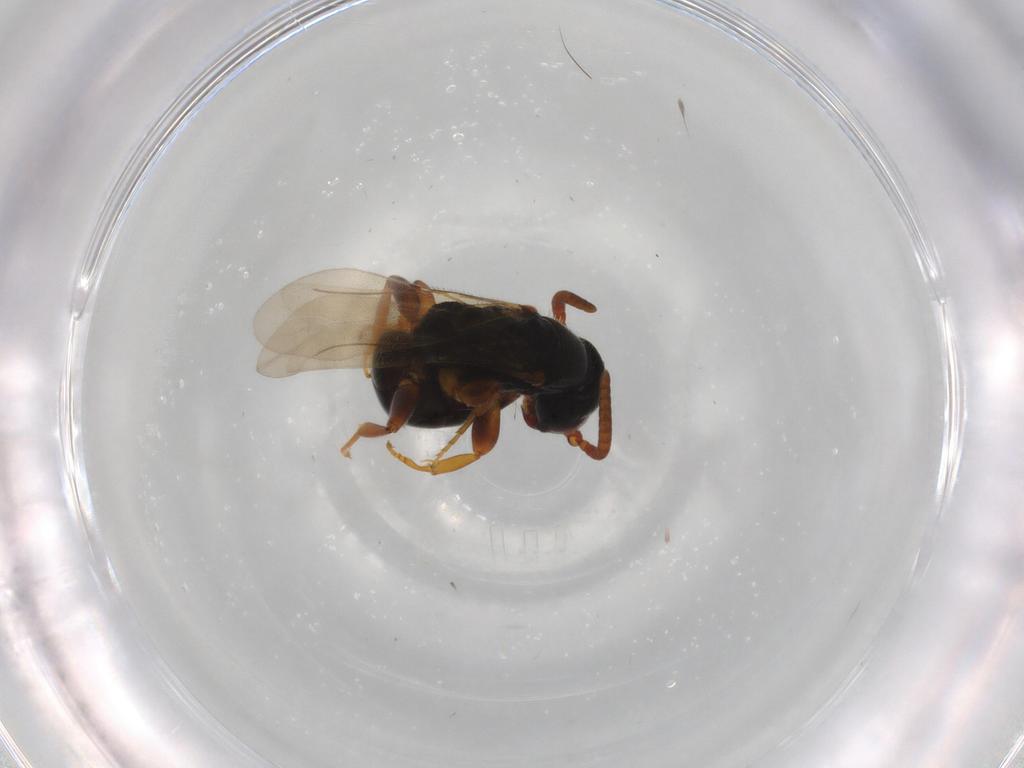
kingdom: Animalia
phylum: Arthropoda
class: Insecta
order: Hymenoptera
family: Bethylidae
